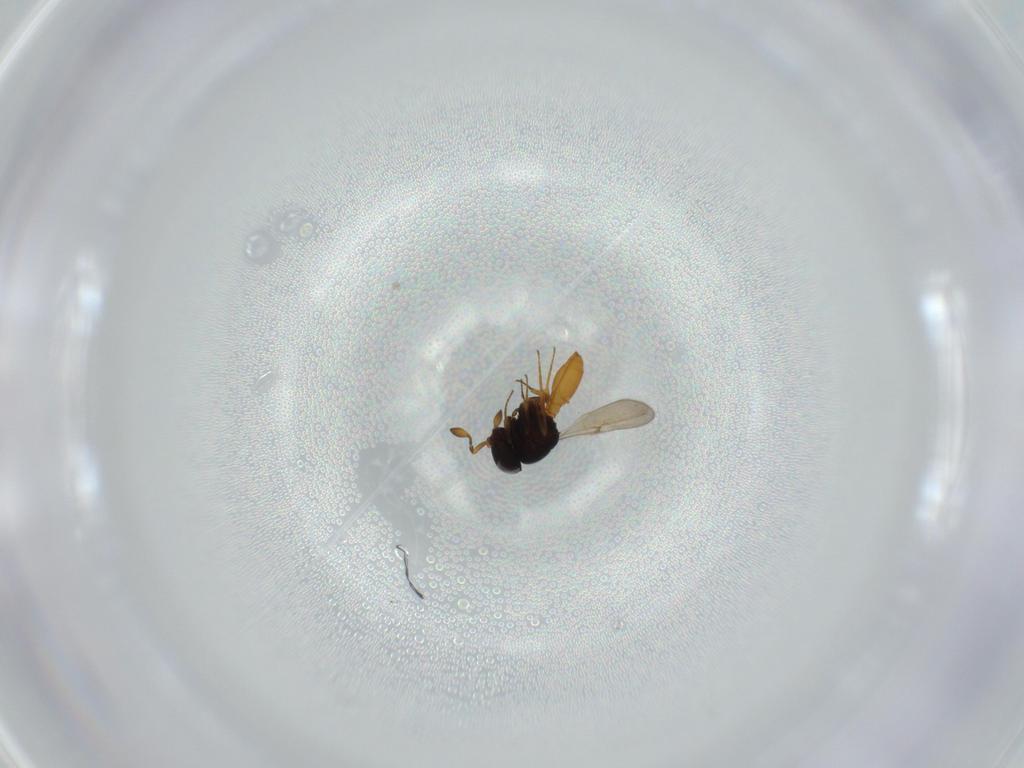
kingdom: Animalia
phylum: Arthropoda
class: Insecta
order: Hymenoptera
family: Scelionidae
